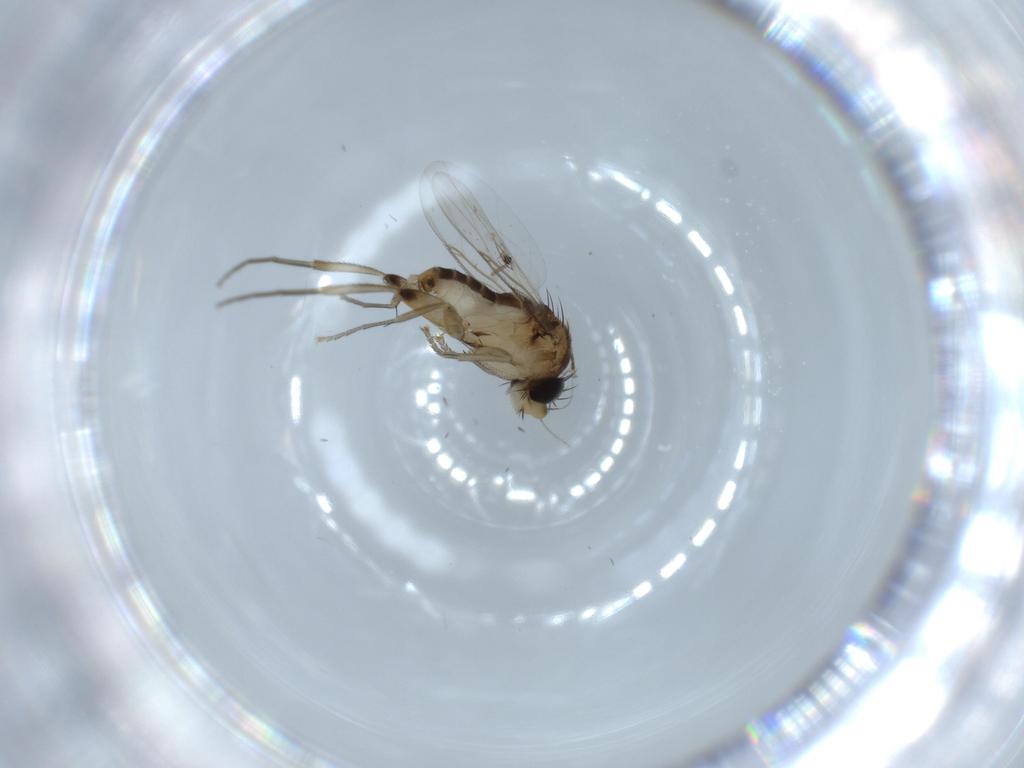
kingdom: Animalia
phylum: Arthropoda
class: Insecta
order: Diptera
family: Phoridae
